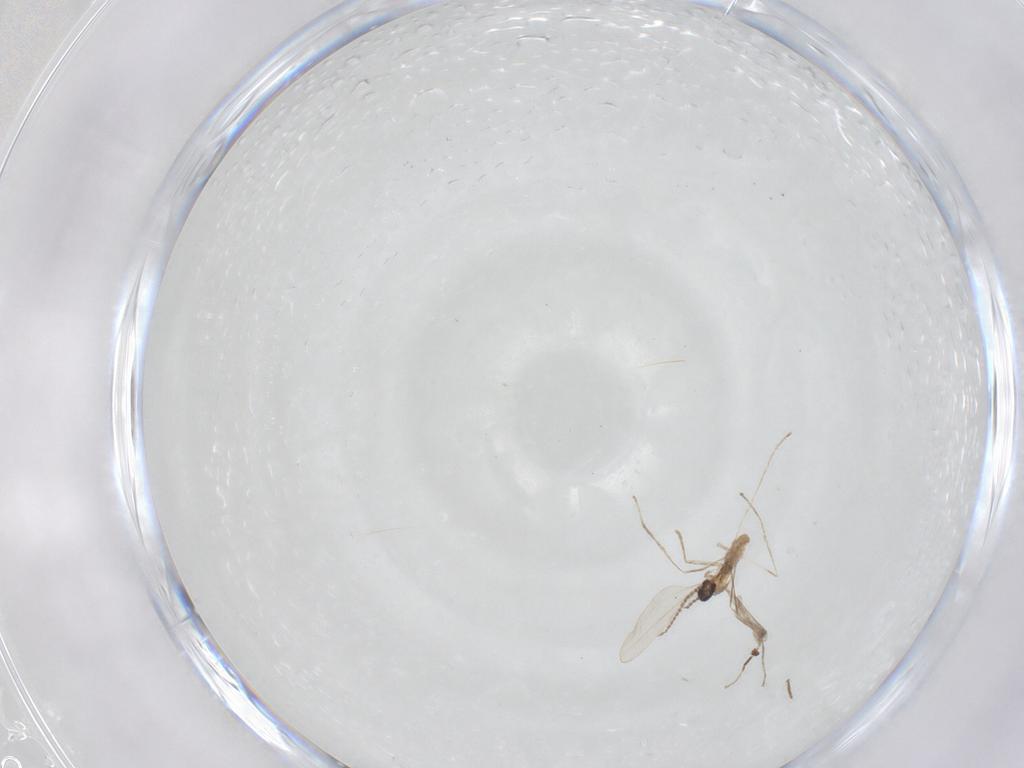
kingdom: Animalia
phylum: Arthropoda
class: Insecta
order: Diptera
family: Cecidomyiidae
